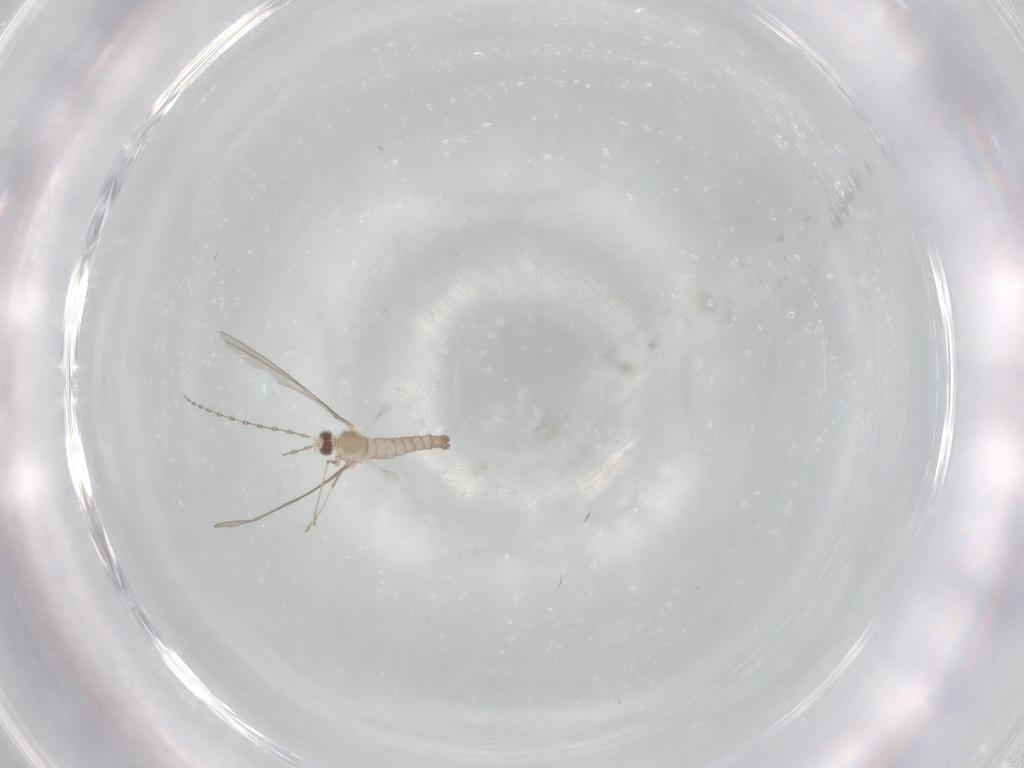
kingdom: Animalia
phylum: Arthropoda
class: Insecta
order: Diptera
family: Cecidomyiidae
